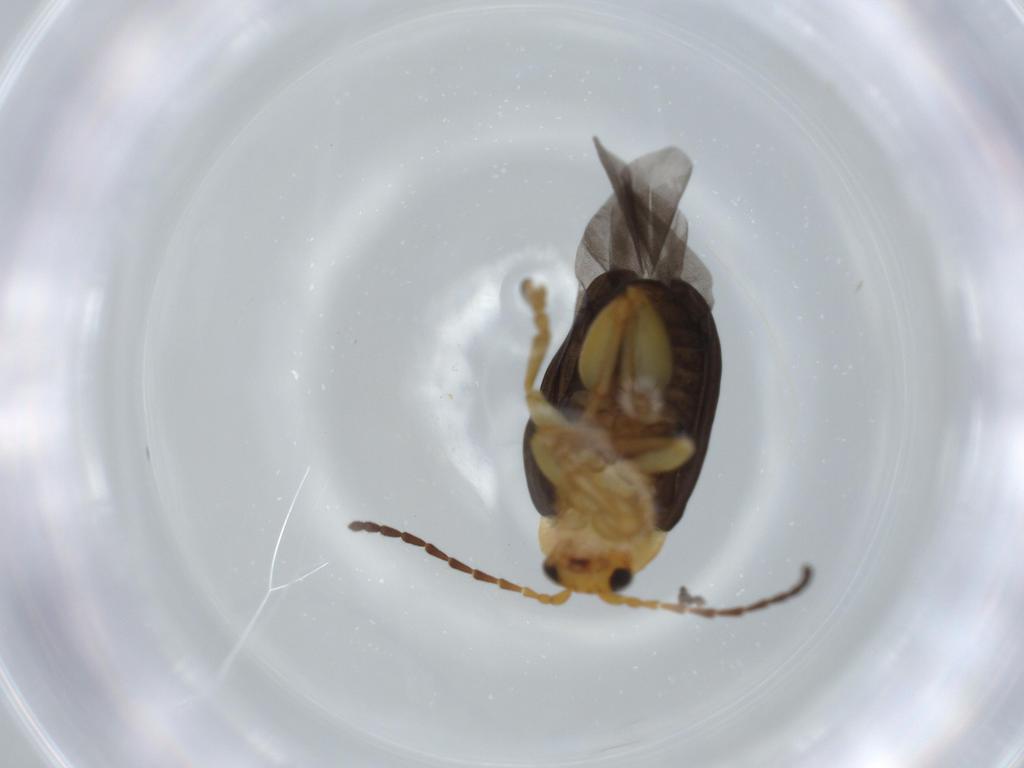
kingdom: Animalia
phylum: Arthropoda
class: Insecta
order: Coleoptera
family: Chrysomelidae
